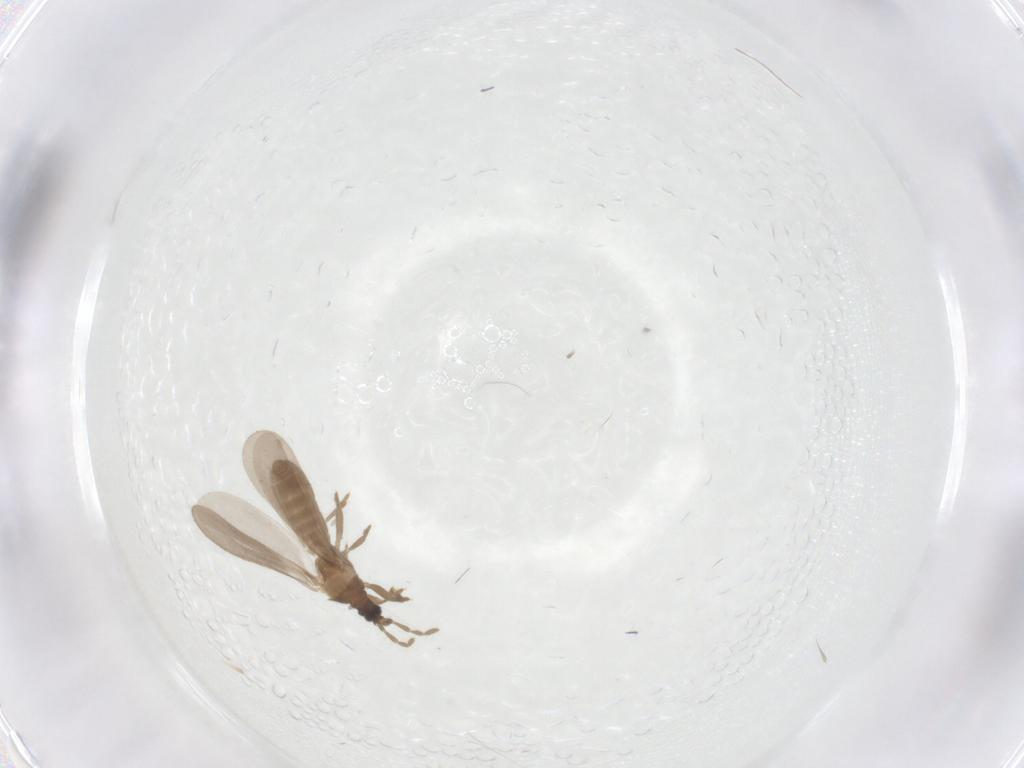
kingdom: Animalia
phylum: Arthropoda
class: Insecta
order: Hemiptera
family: Enicocephalidae
